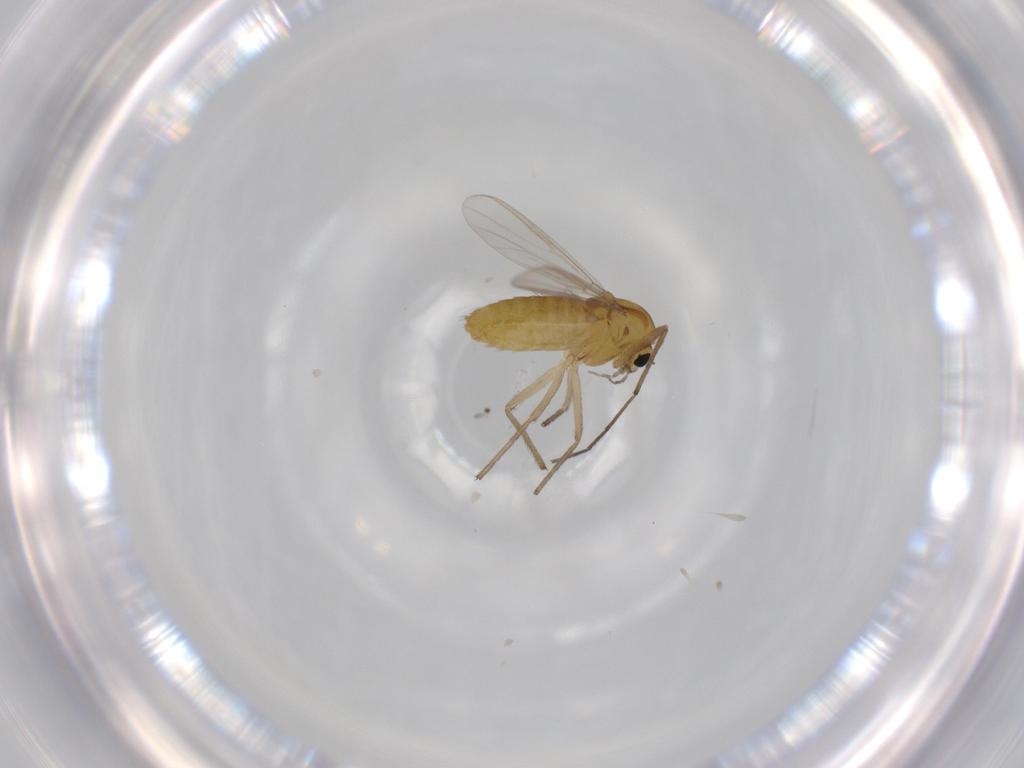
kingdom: Animalia
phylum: Arthropoda
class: Insecta
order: Diptera
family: Chironomidae
